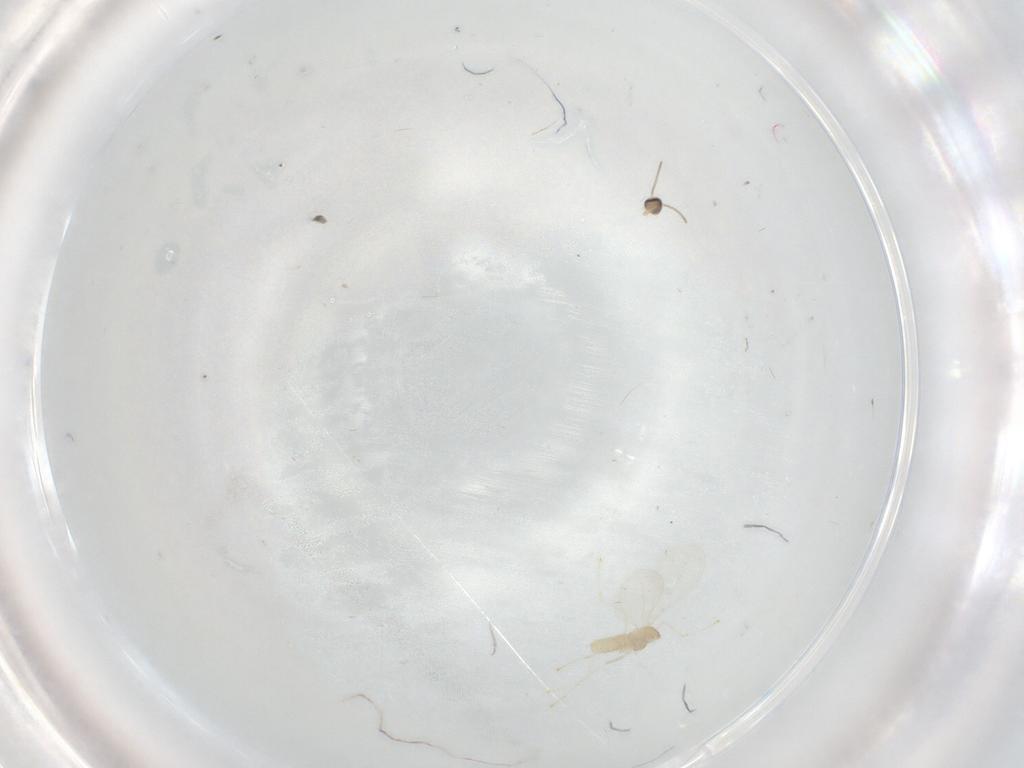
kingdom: Animalia
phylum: Arthropoda
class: Insecta
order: Diptera
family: Cecidomyiidae
